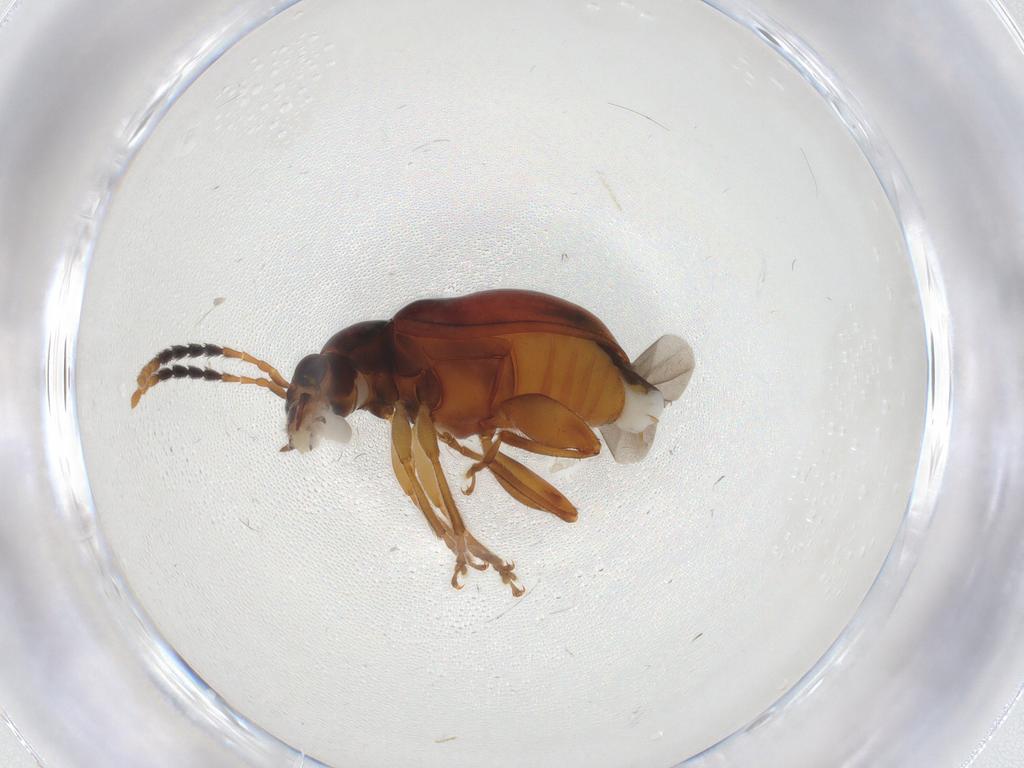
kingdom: Animalia
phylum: Arthropoda
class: Insecta
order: Coleoptera
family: Chrysomelidae
